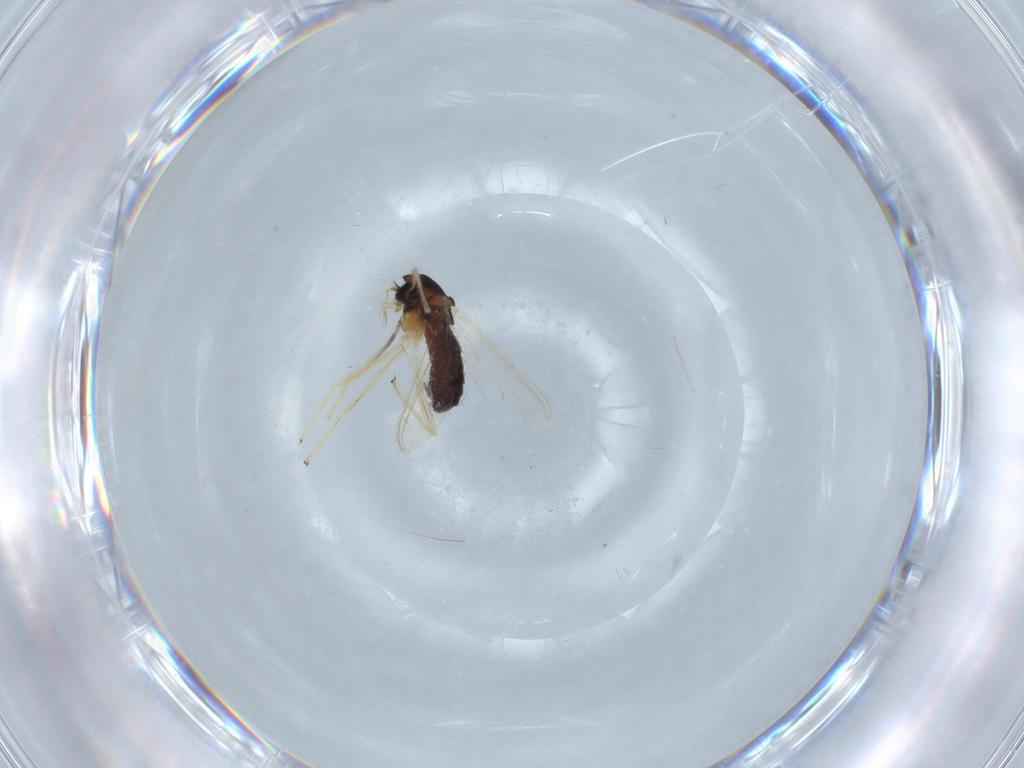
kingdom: Animalia
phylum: Arthropoda
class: Insecta
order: Diptera
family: Chironomidae
